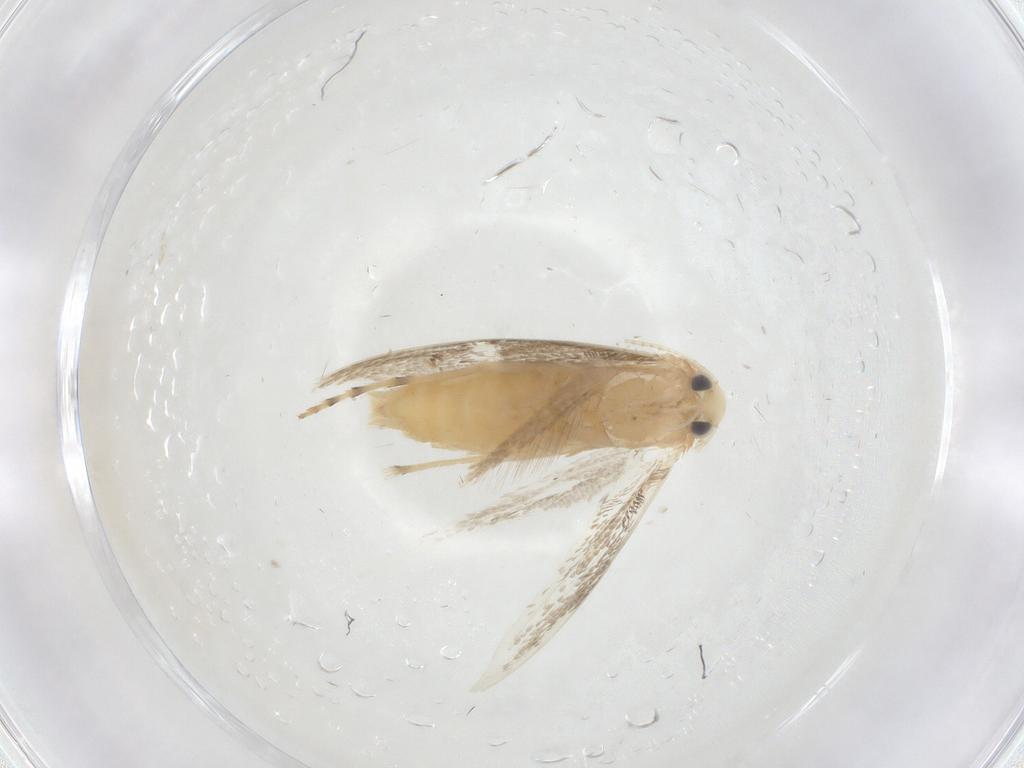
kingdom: Animalia
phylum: Arthropoda
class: Insecta
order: Lepidoptera
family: Gracillariidae
